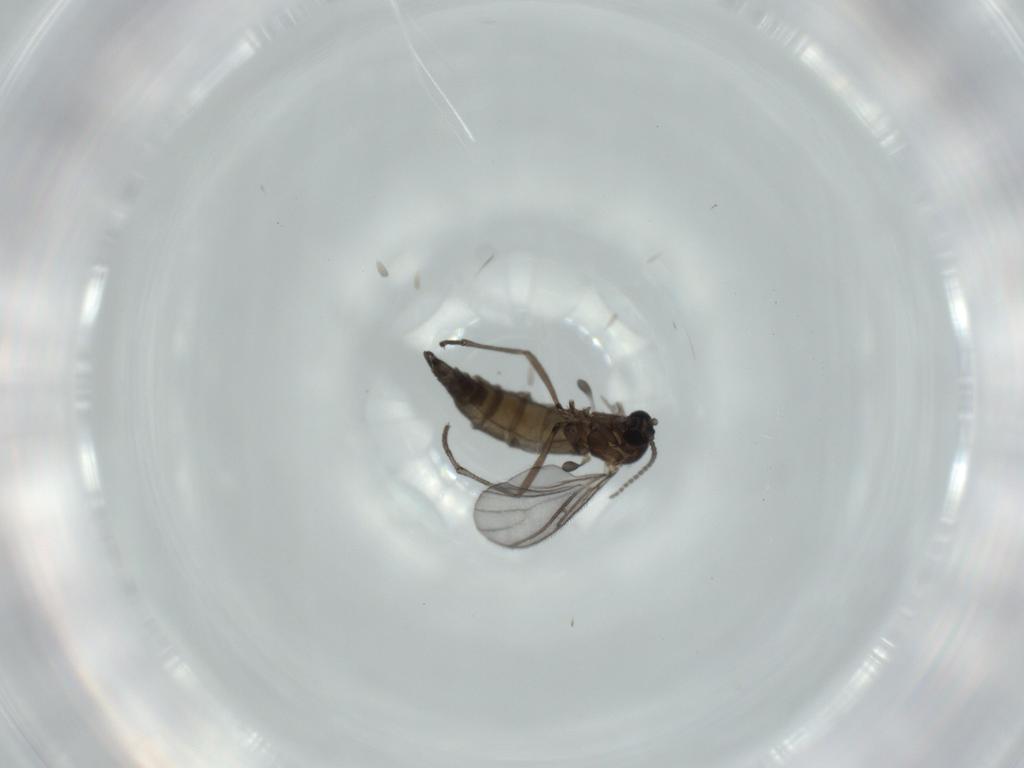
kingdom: Animalia
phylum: Arthropoda
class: Insecta
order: Diptera
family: Sciaridae
